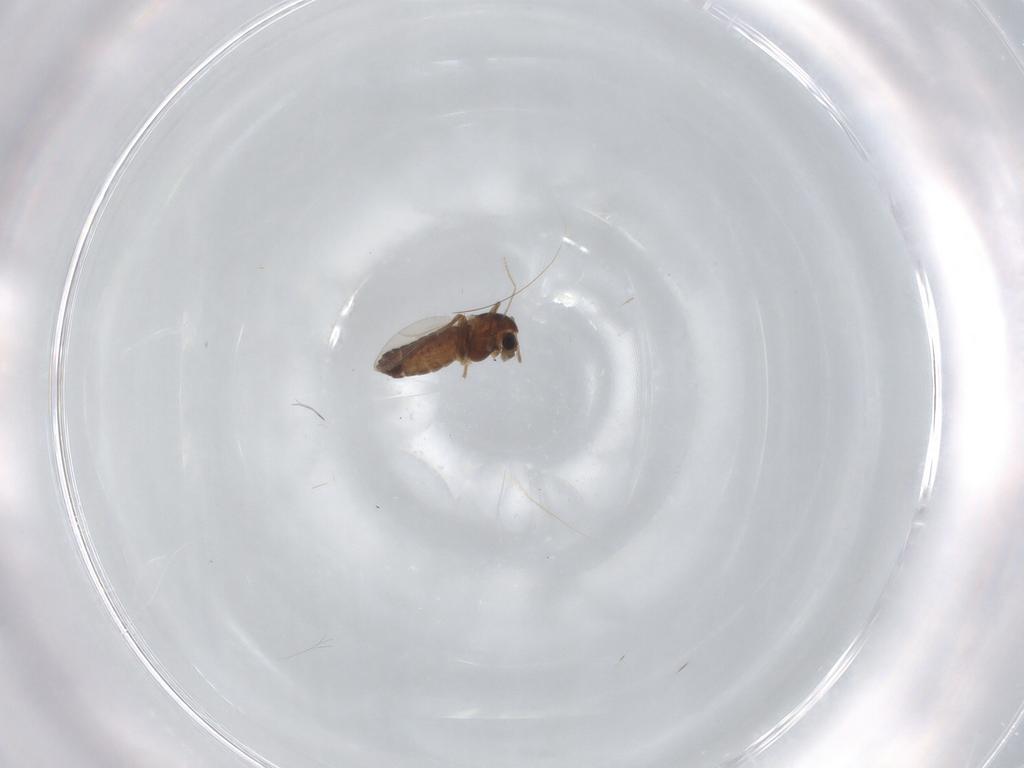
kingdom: Animalia
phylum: Arthropoda
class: Insecta
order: Diptera
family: Chironomidae
